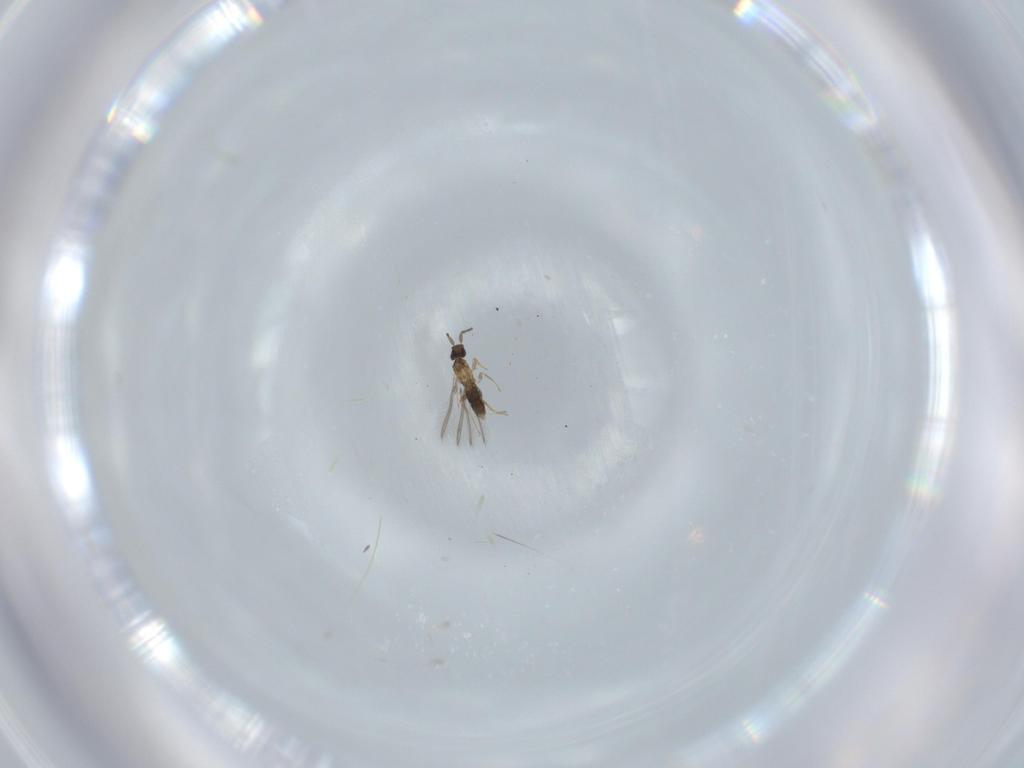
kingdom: Animalia
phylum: Arthropoda
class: Insecta
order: Hymenoptera
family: Mymaridae
